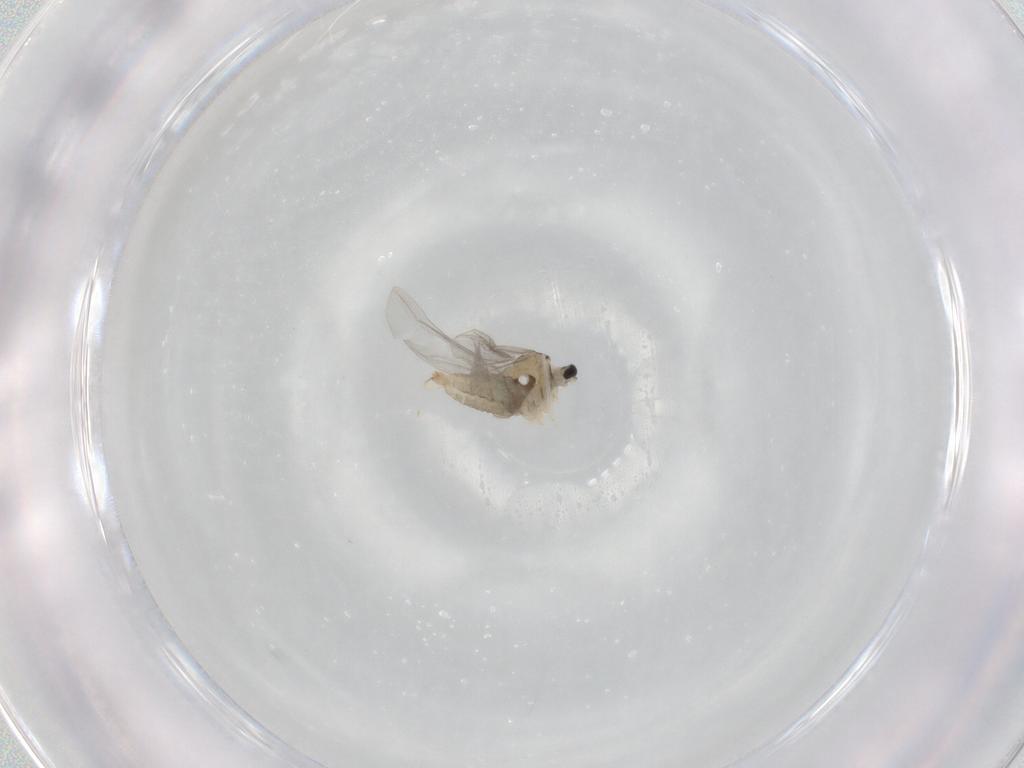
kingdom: Animalia
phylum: Arthropoda
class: Insecta
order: Diptera
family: Cecidomyiidae
